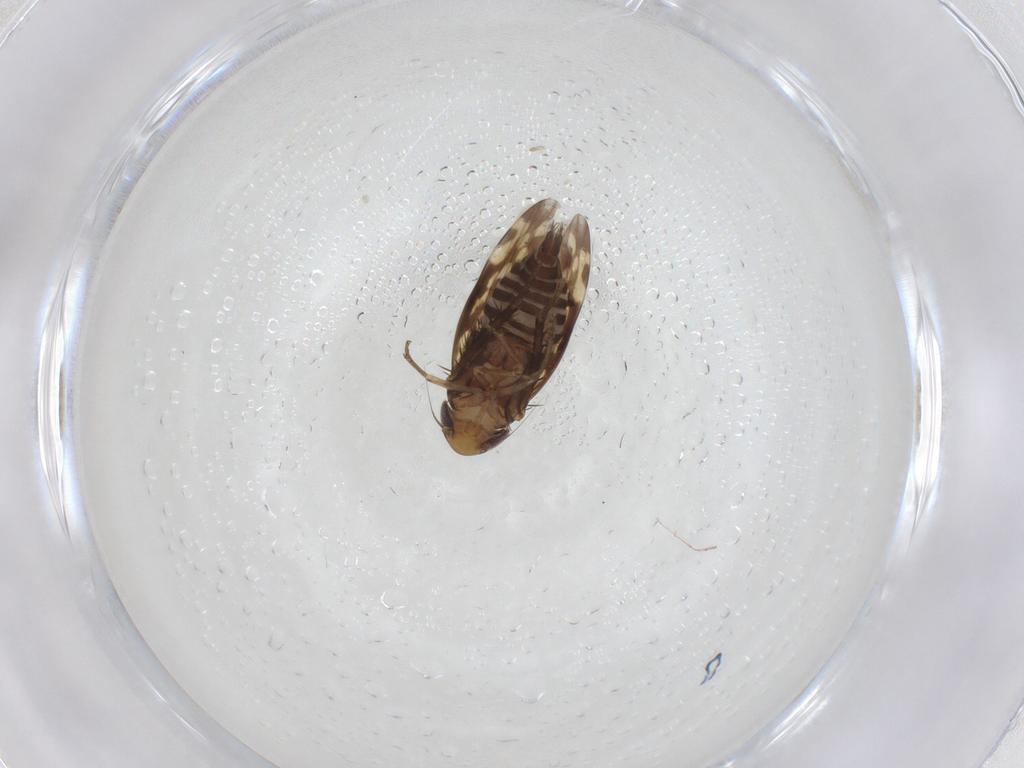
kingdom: Animalia
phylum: Arthropoda
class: Insecta
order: Hemiptera
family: Cicadellidae
